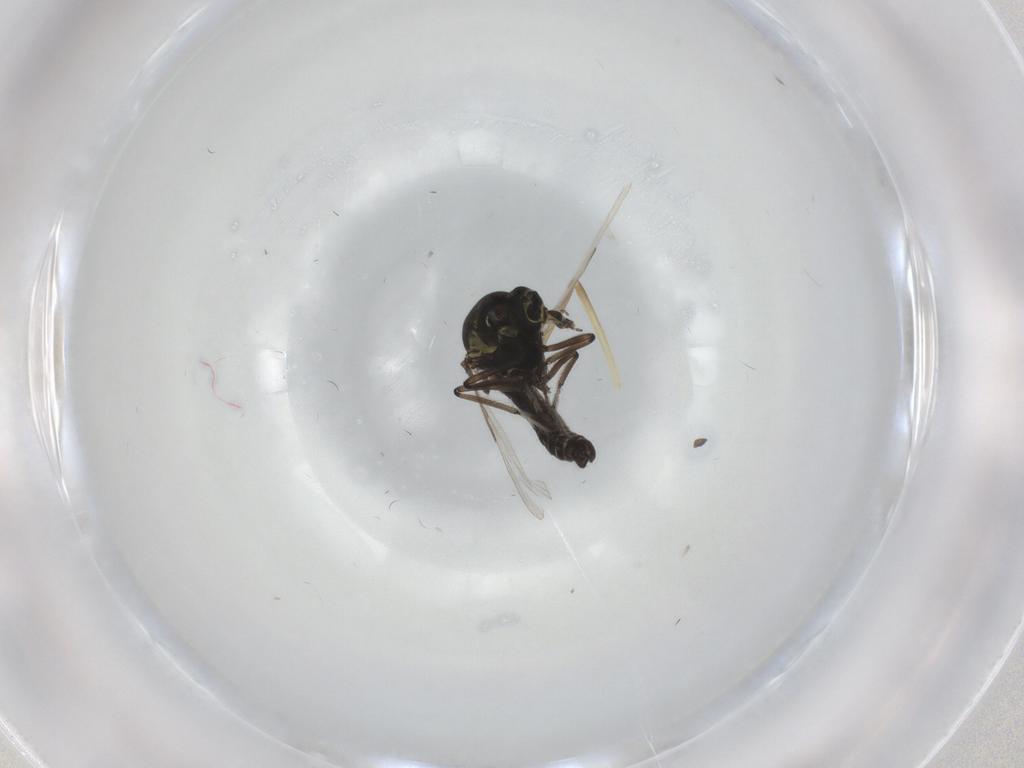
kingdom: Animalia
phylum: Arthropoda
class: Insecta
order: Diptera
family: Ceratopogonidae
